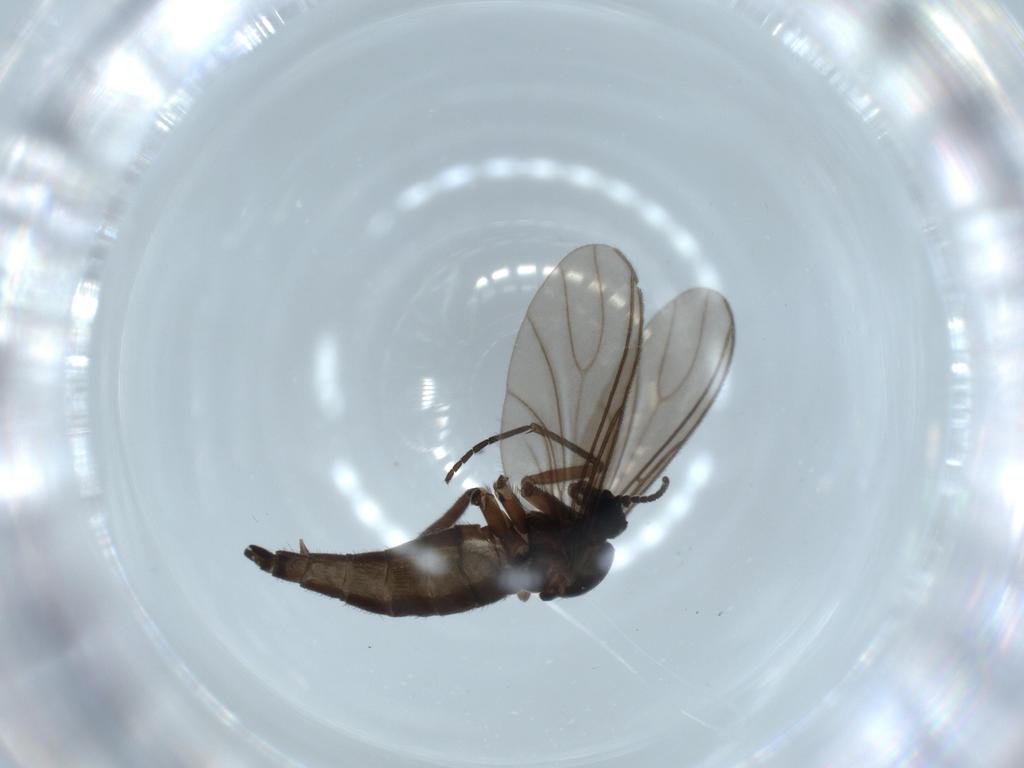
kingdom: Animalia
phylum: Arthropoda
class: Insecta
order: Diptera
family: Sciaridae
